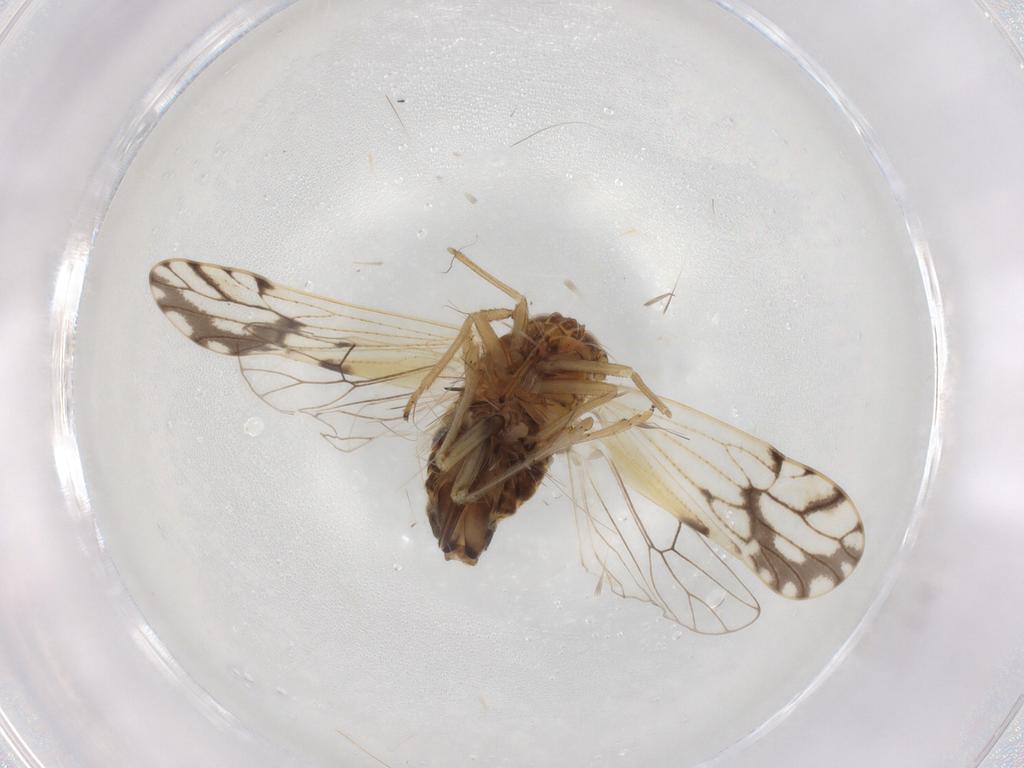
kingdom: Animalia
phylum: Arthropoda
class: Insecta
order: Hemiptera
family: Delphacidae
